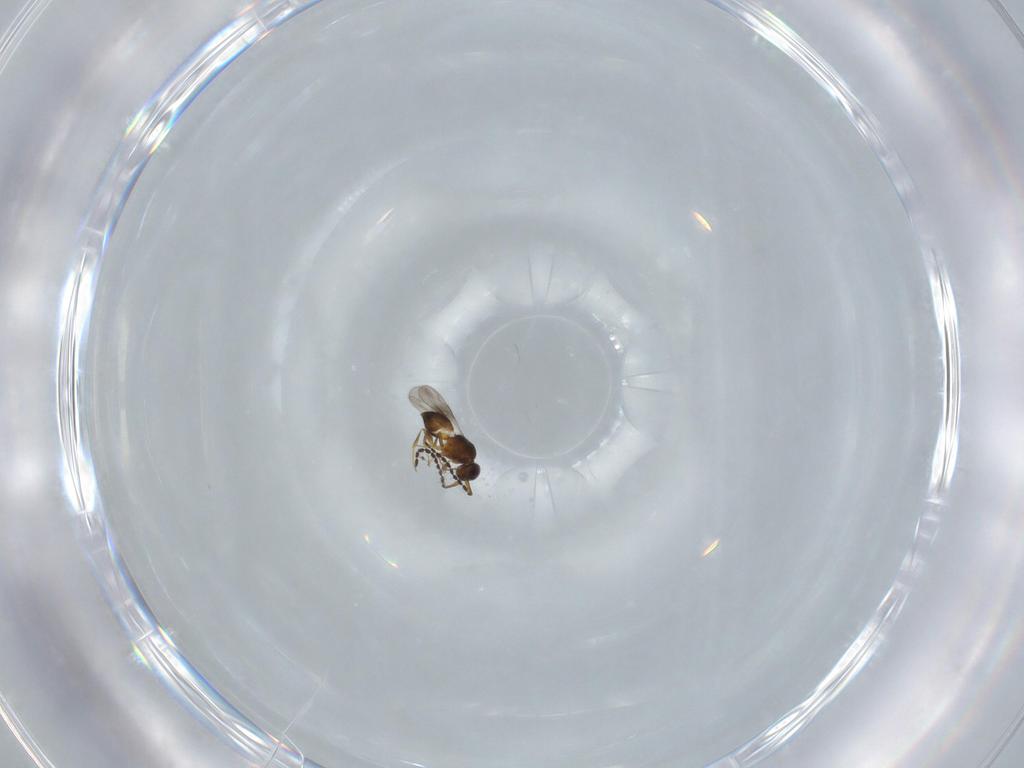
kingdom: Animalia
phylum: Arthropoda
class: Insecta
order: Hymenoptera
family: Ceraphronidae
